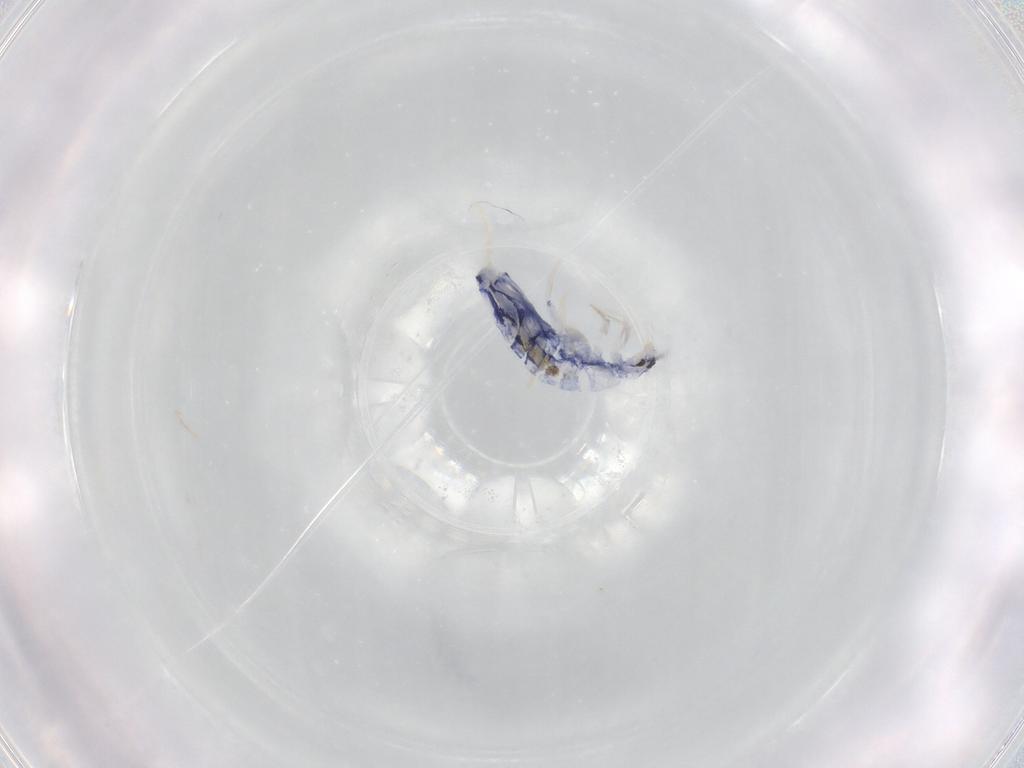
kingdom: Animalia
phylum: Arthropoda
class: Collembola
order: Entomobryomorpha
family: Entomobryidae
